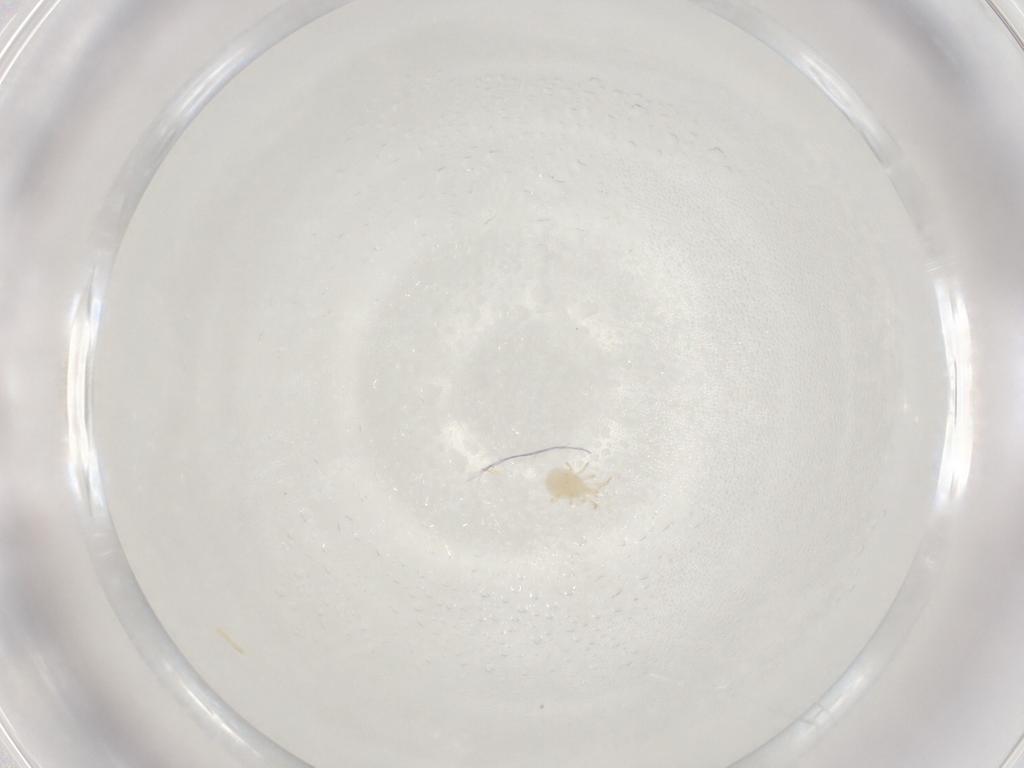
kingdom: Animalia
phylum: Arthropoda
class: Arachnida
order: Mesostigmata
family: Phytoseiidae
